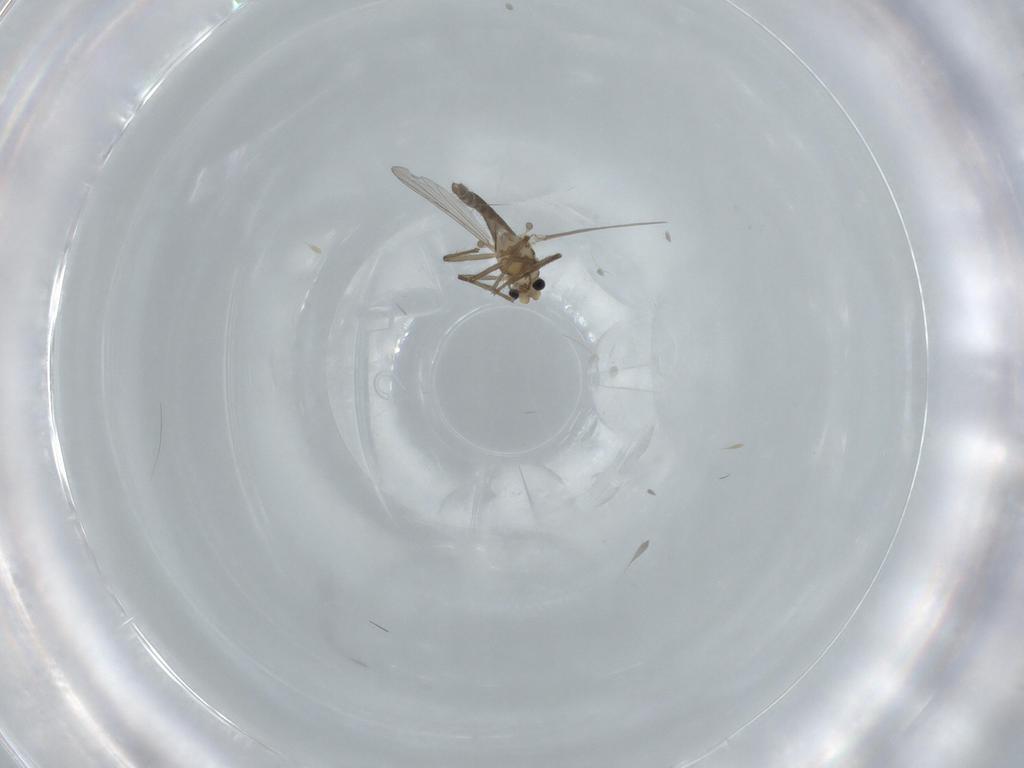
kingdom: Animalia
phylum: Arthropoda
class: Insecta
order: Diptera
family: Chironomidae
